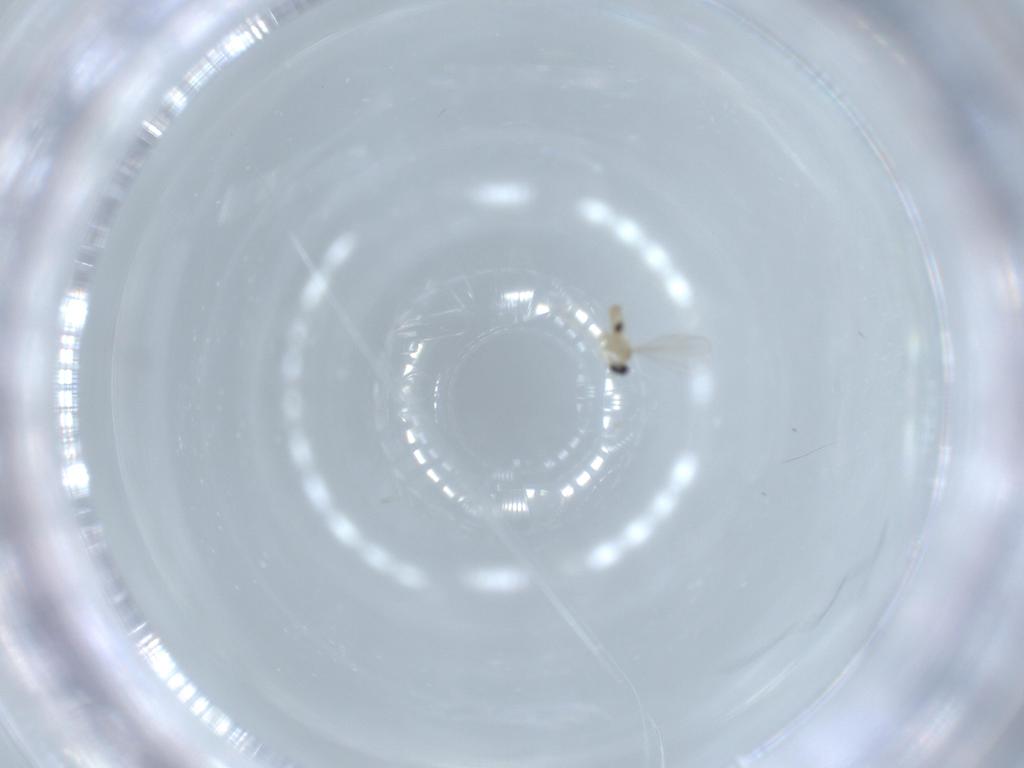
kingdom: Animalia
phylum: Arthropoda
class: Insecta
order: Diptera
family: Cecidomyiidae
